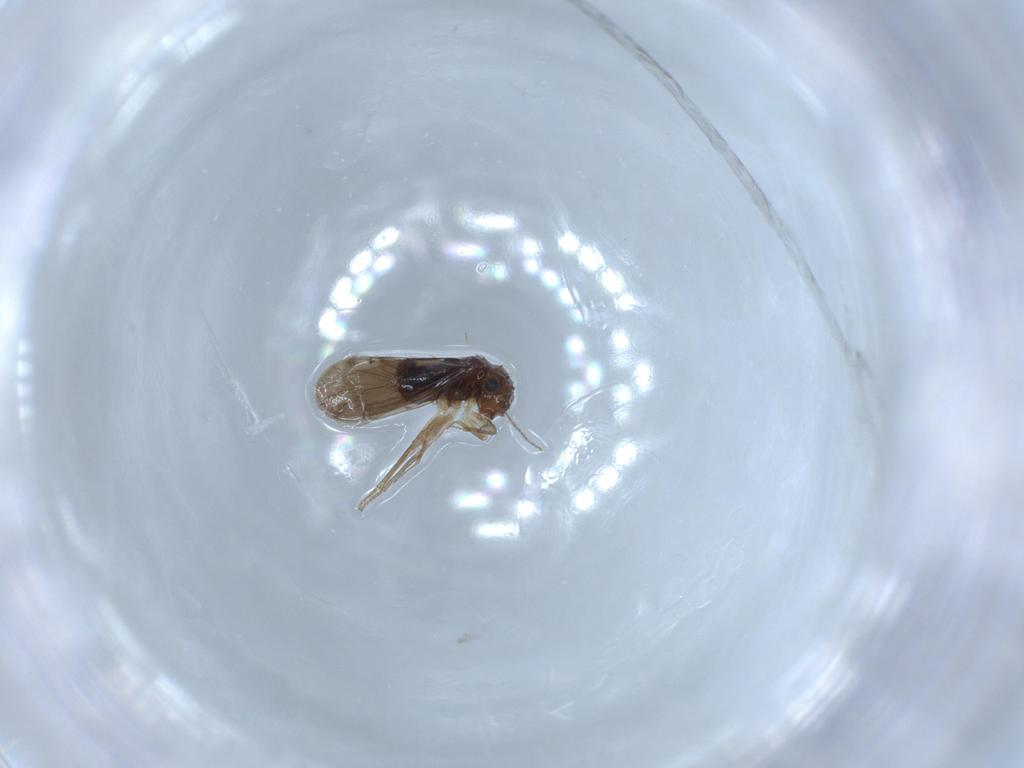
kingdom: Animalia
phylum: Arthropoda
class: Insecta
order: Psocodea
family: Ectopsocidae
